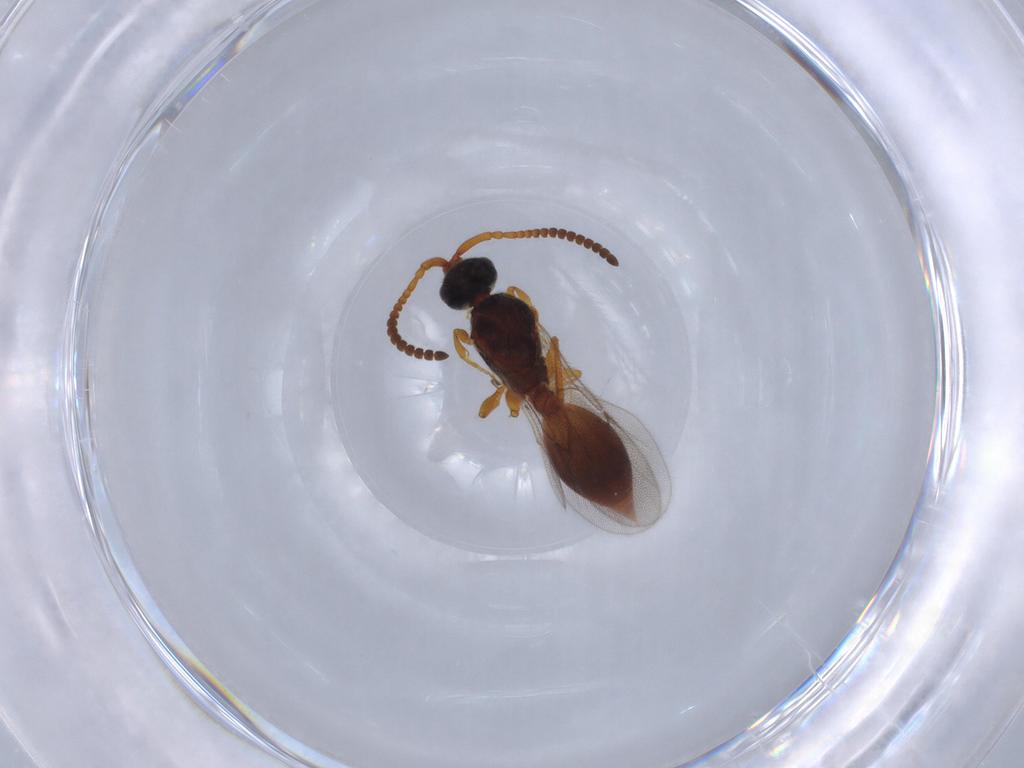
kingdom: Animalia
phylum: Arthropoda
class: Insecta
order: Hymenoptera
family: Diapriidae
